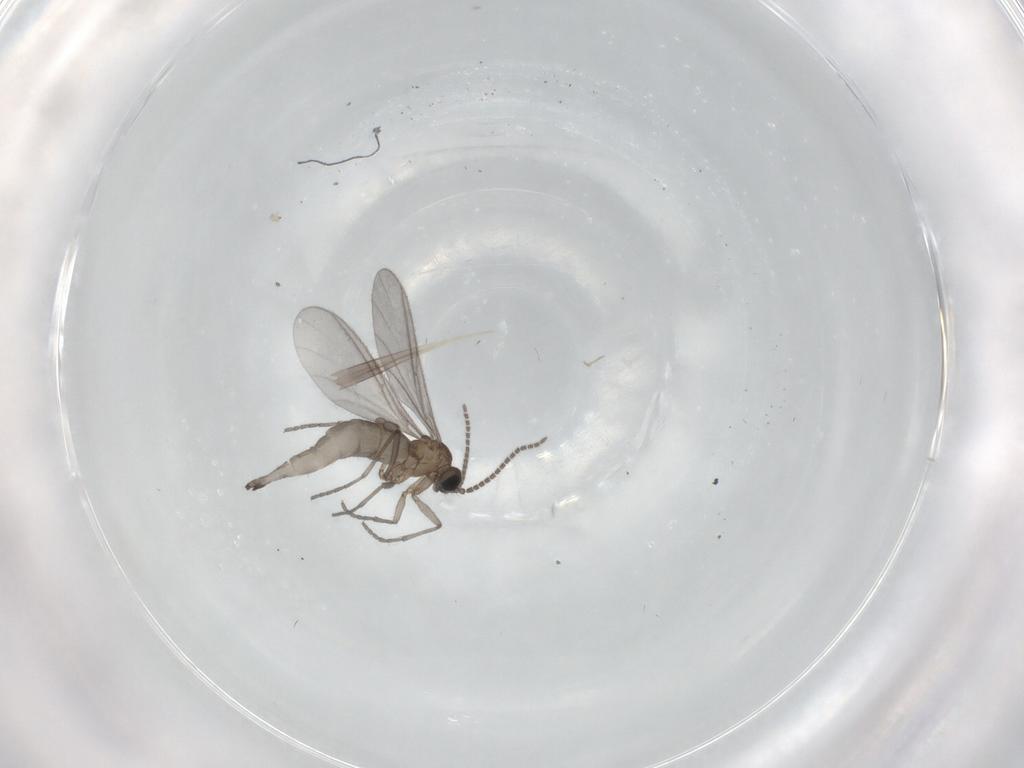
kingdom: Animalia
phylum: Arthropoda
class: Insecta
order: Diptera
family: Sciaridae
